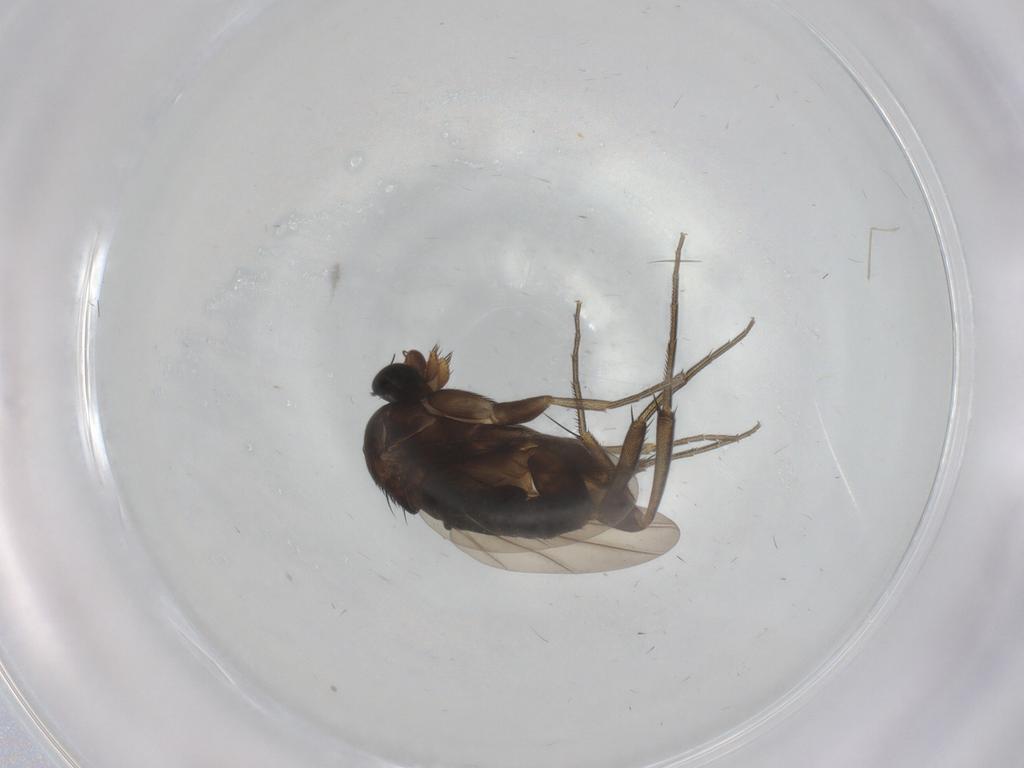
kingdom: Animalia
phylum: Arthropoda
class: Insecta
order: Diptera
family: Phoridae
